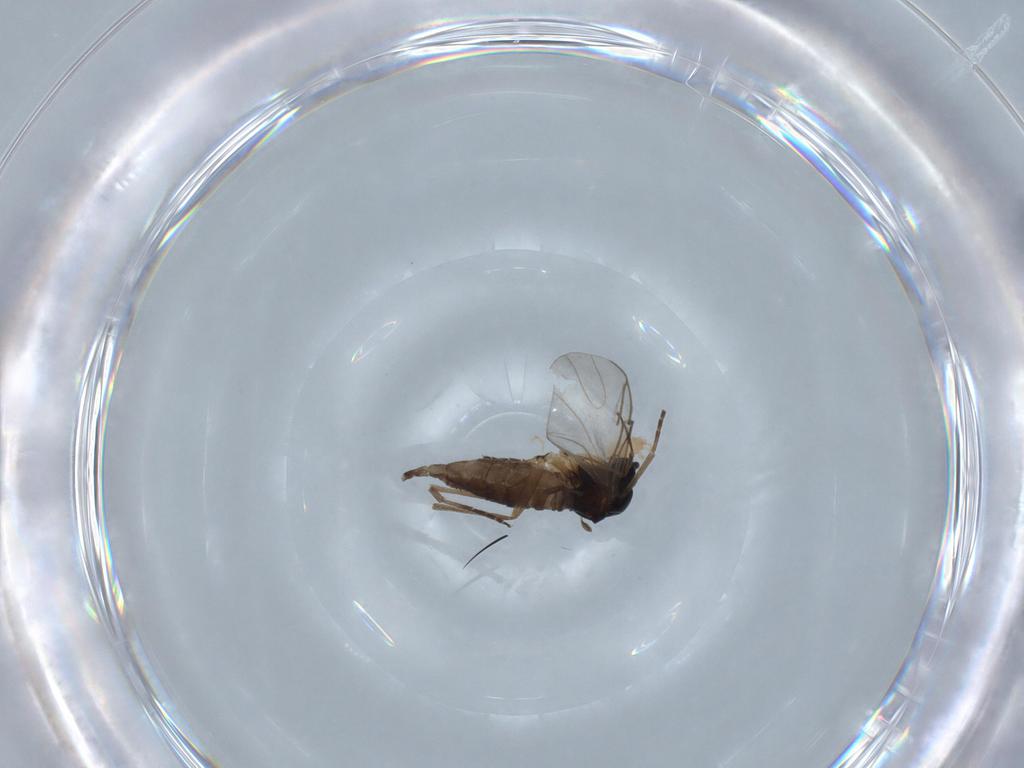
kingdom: Animalia
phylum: Arthropoda
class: Insecta
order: Diptera
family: Sciaridae
